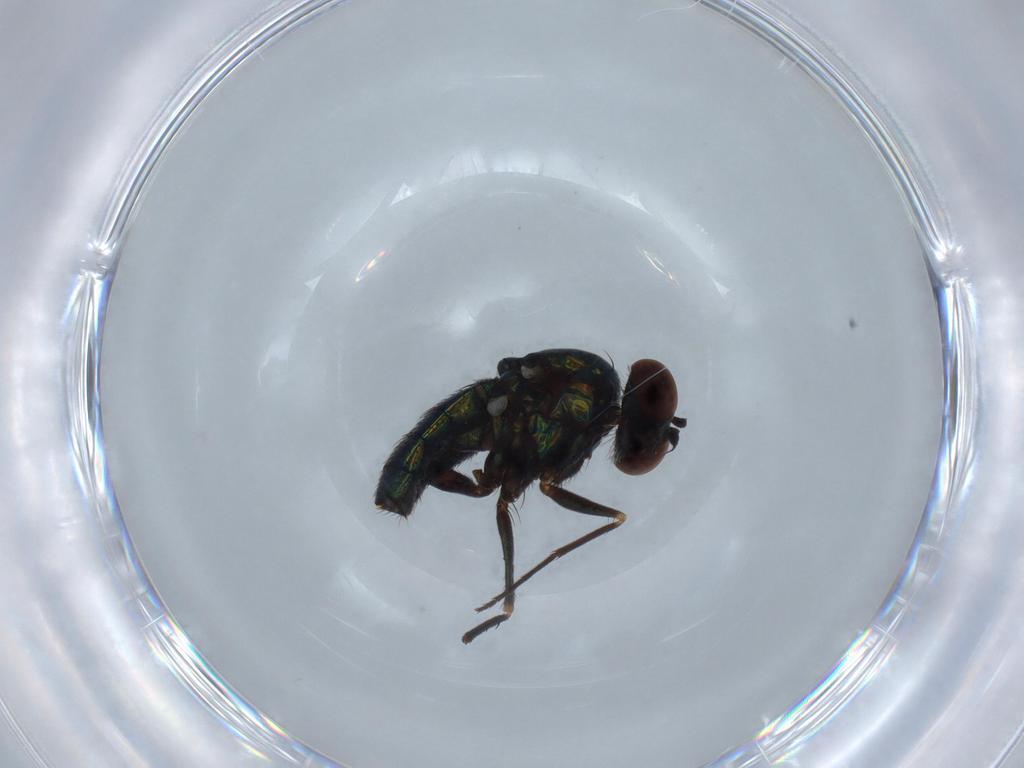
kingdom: Animalia
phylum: Arthropoda
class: Insecta
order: Diptera
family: Dolichopodidae
